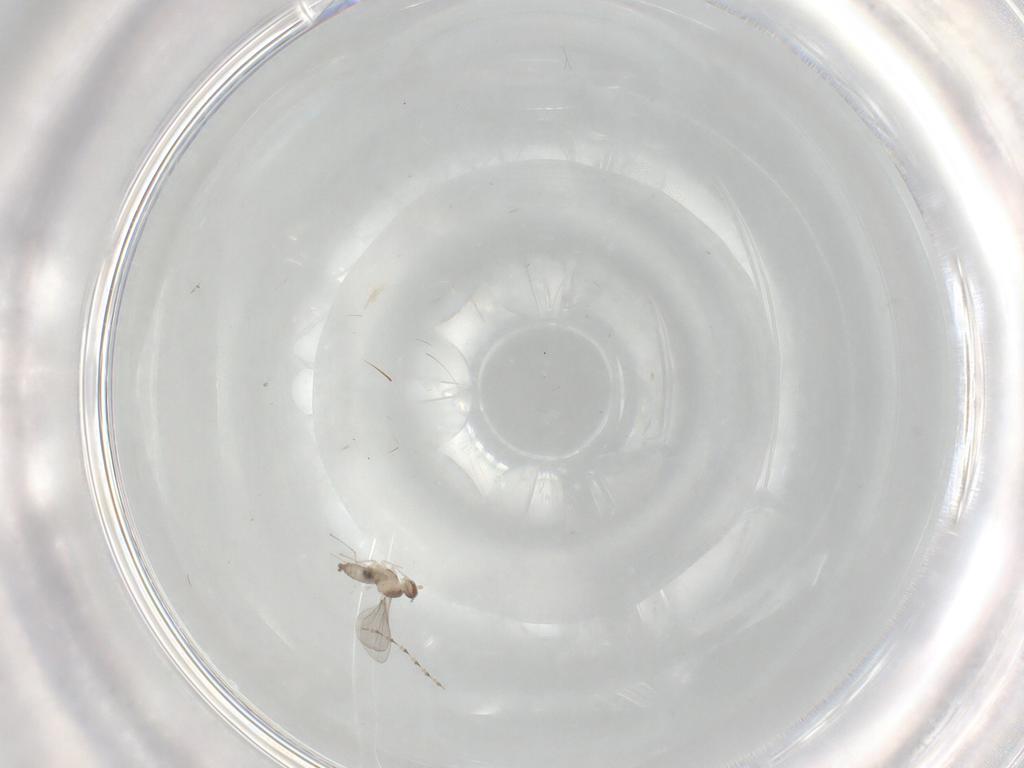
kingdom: Animalia
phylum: Arthropoda
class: Insecta
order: Diptera
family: Cecidomyiidae
